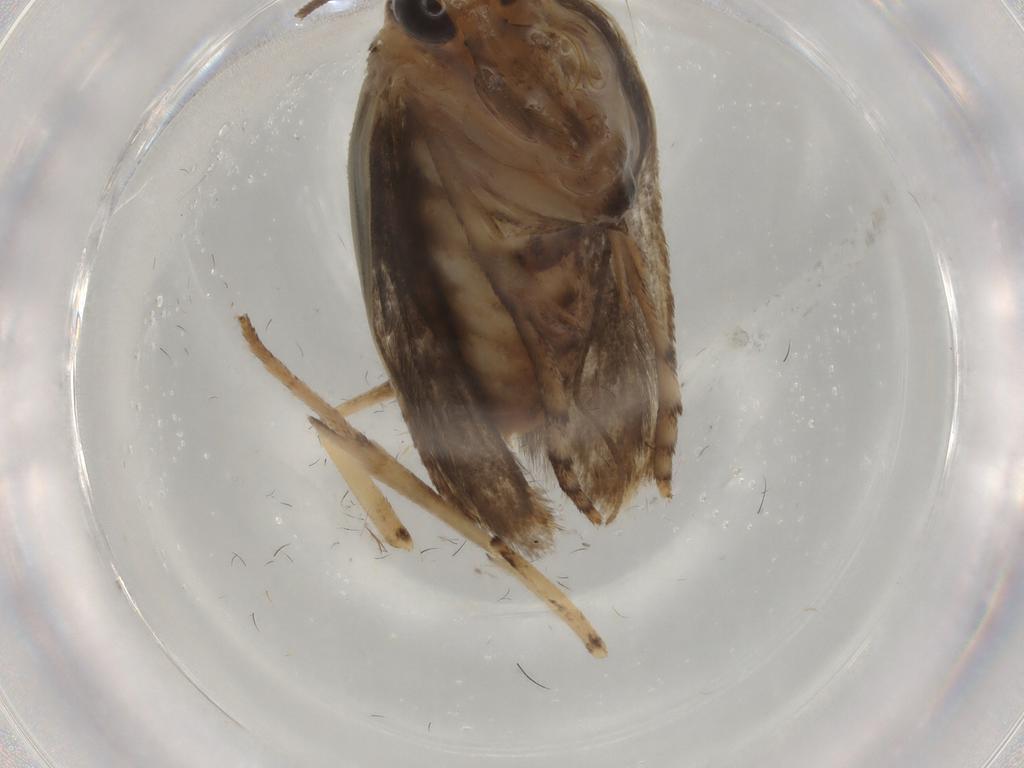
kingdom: Animalia
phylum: Arthropoda
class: Insecta
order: Lepidoptera
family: Yponomeutidae
